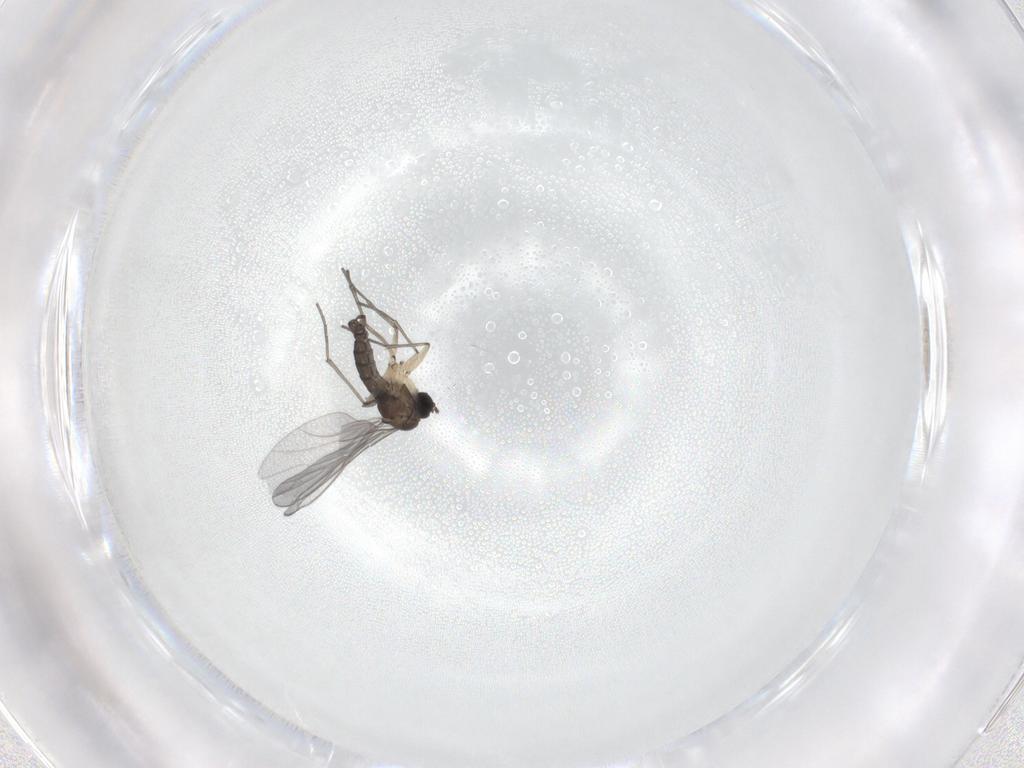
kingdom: Animalia
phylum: Arthropoda
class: Insecta
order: Diptera
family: Sciaridae
